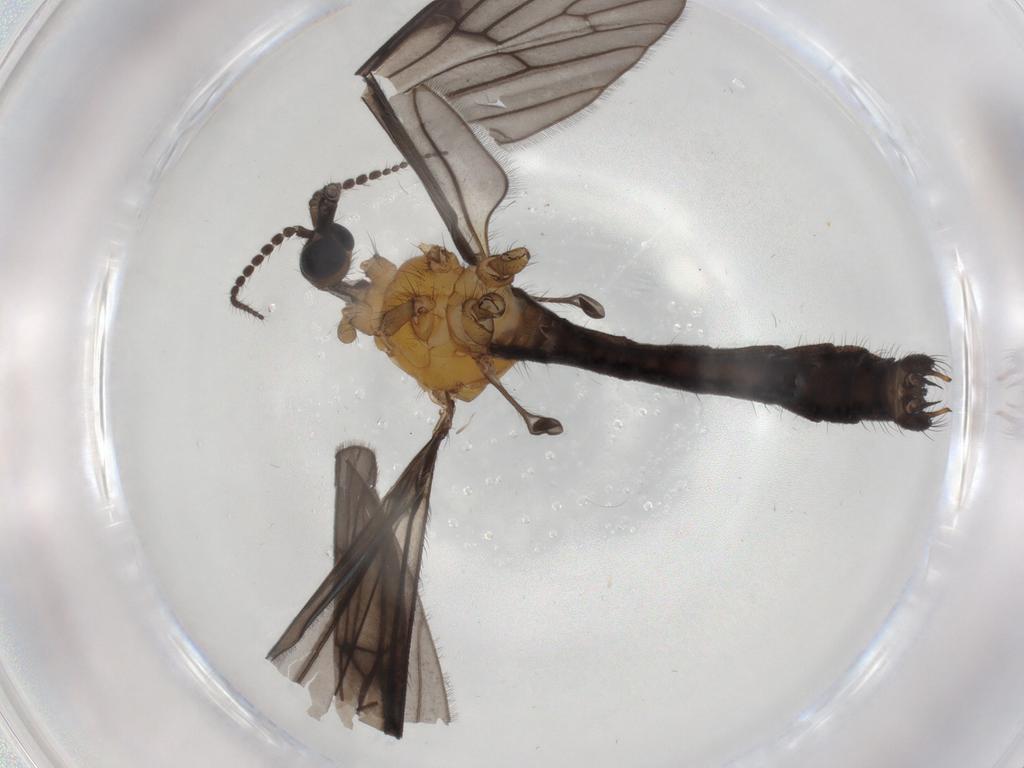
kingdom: Animalia
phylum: Arthropoda
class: Insecta
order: Diptera
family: Limoniidae
